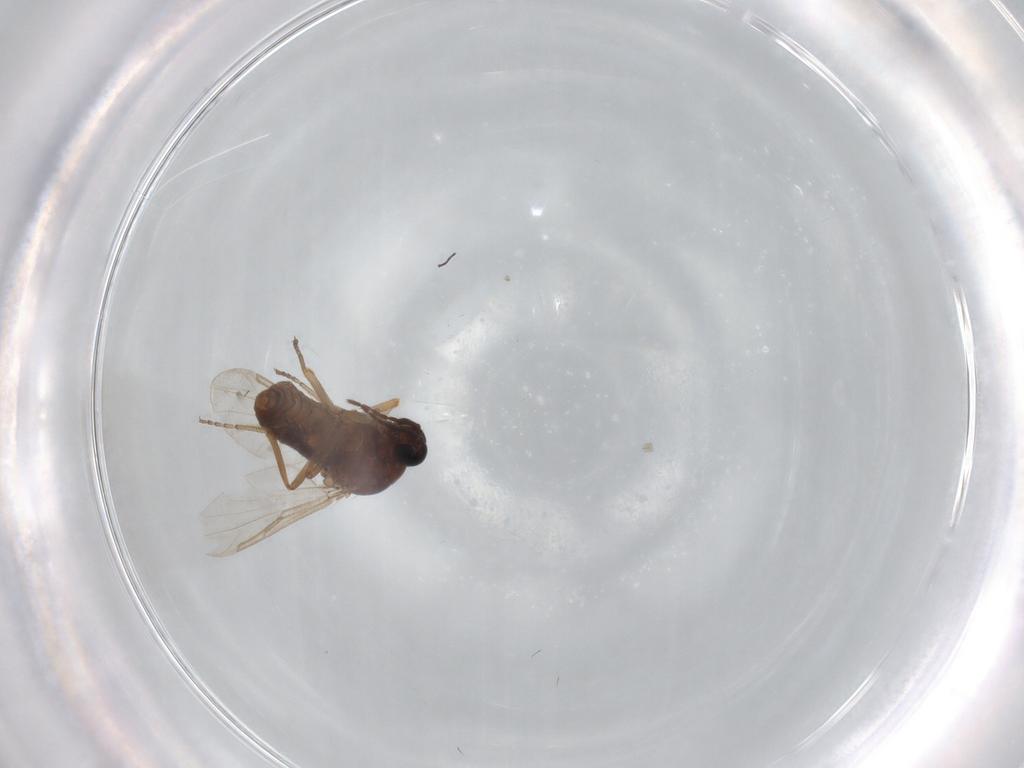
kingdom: Animalia
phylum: Arthropoda
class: Insecta
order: Diptera
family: Ceratopogonidae
